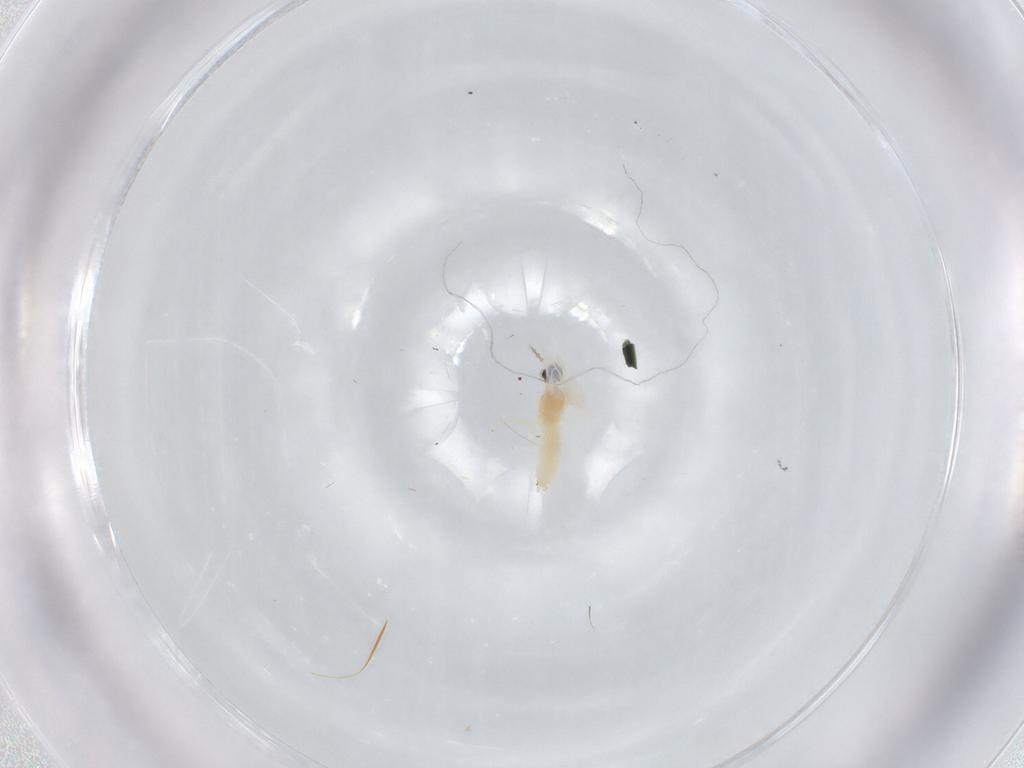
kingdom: Animalia
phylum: Arthropoda
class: Insecta
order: Diptera
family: Cecidomyiidae
